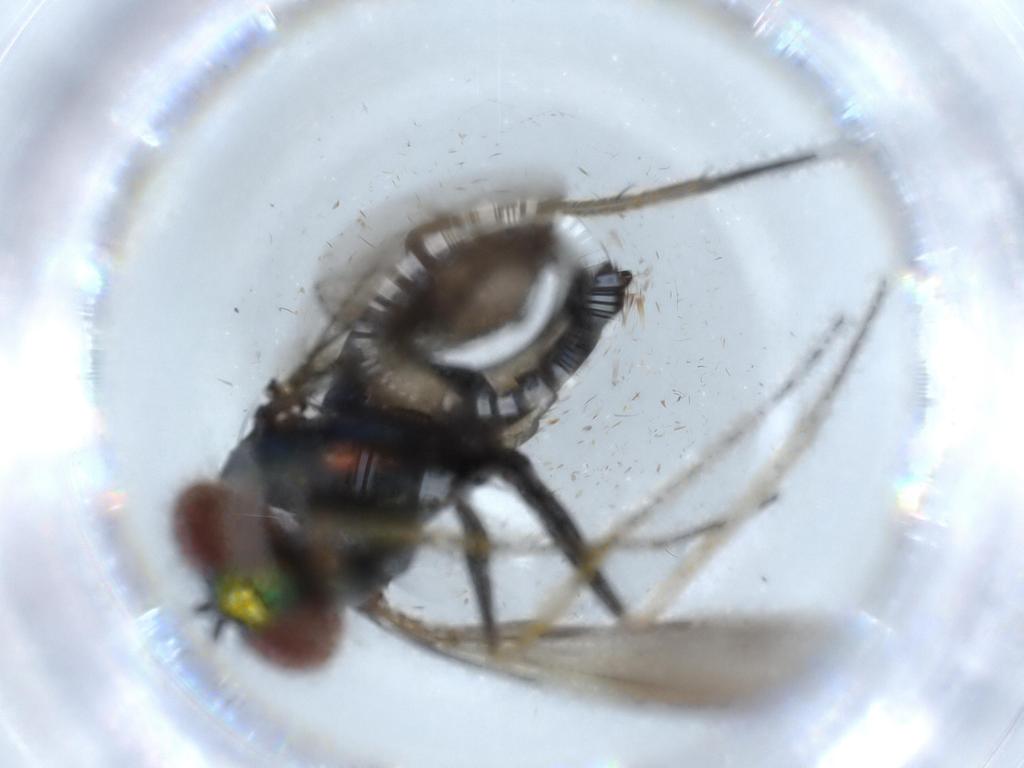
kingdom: Animalia
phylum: Arthropoda
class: Insecta
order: Diptera
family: Dolichopodidae
